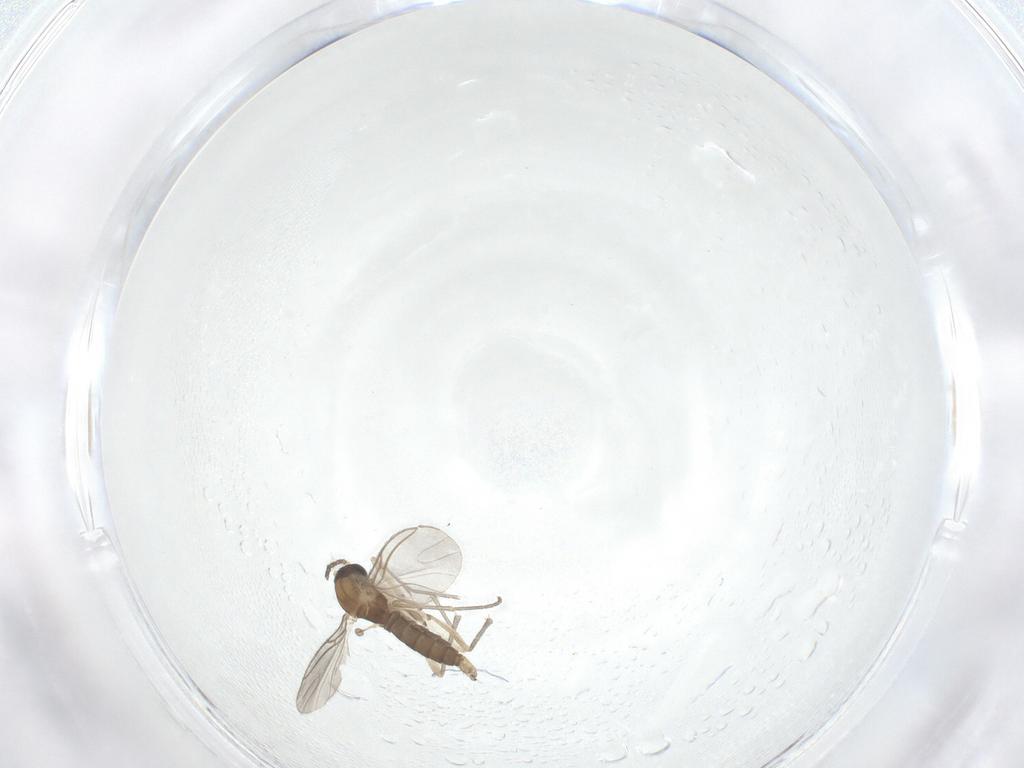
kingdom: Animalia
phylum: Arthropoda
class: Insecta
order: Diptera
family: Sciaridae
